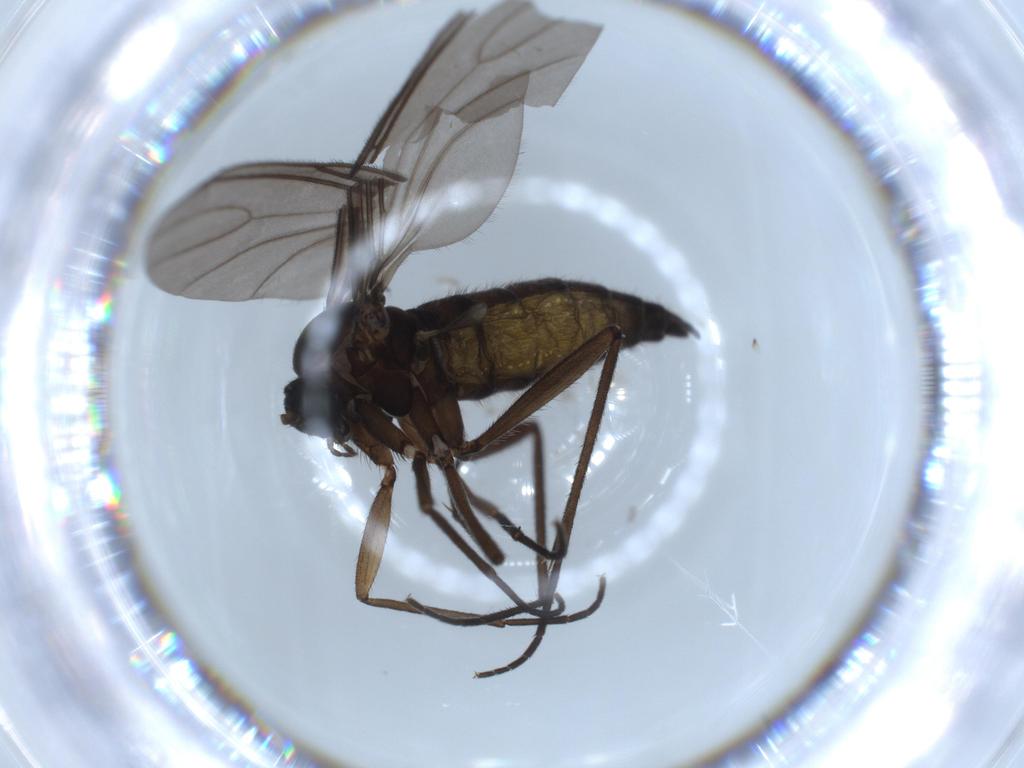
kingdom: Animalia
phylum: Arthropoda
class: Insecta
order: Diptera
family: Sciaridae
